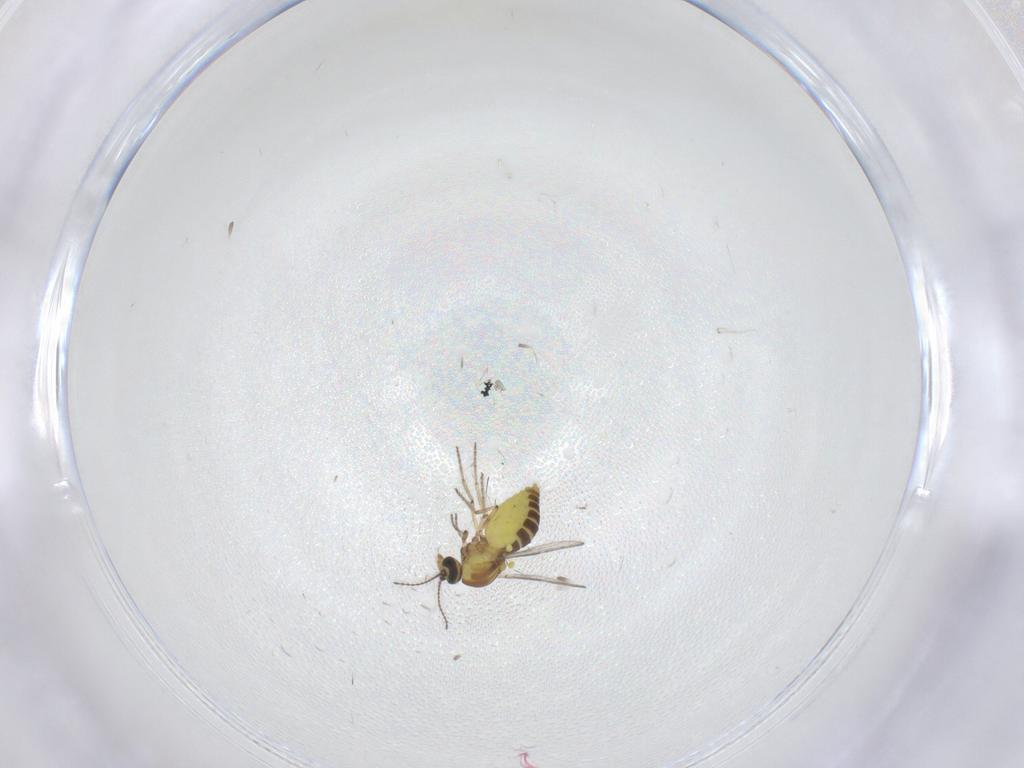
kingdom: Animalia
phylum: Arthropoda
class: Insecta
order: Diptera
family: Ceratopogonidae
